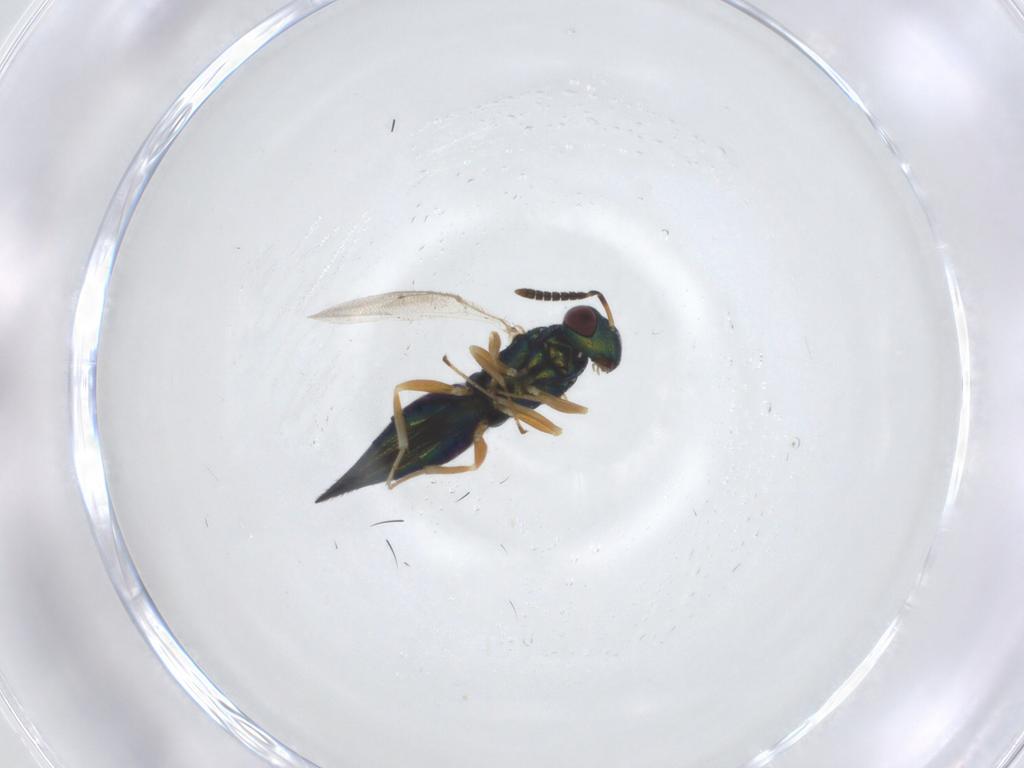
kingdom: Animalia
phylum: Arthropoda
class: Insecta
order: Hymenoptera
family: Pteromalidae
